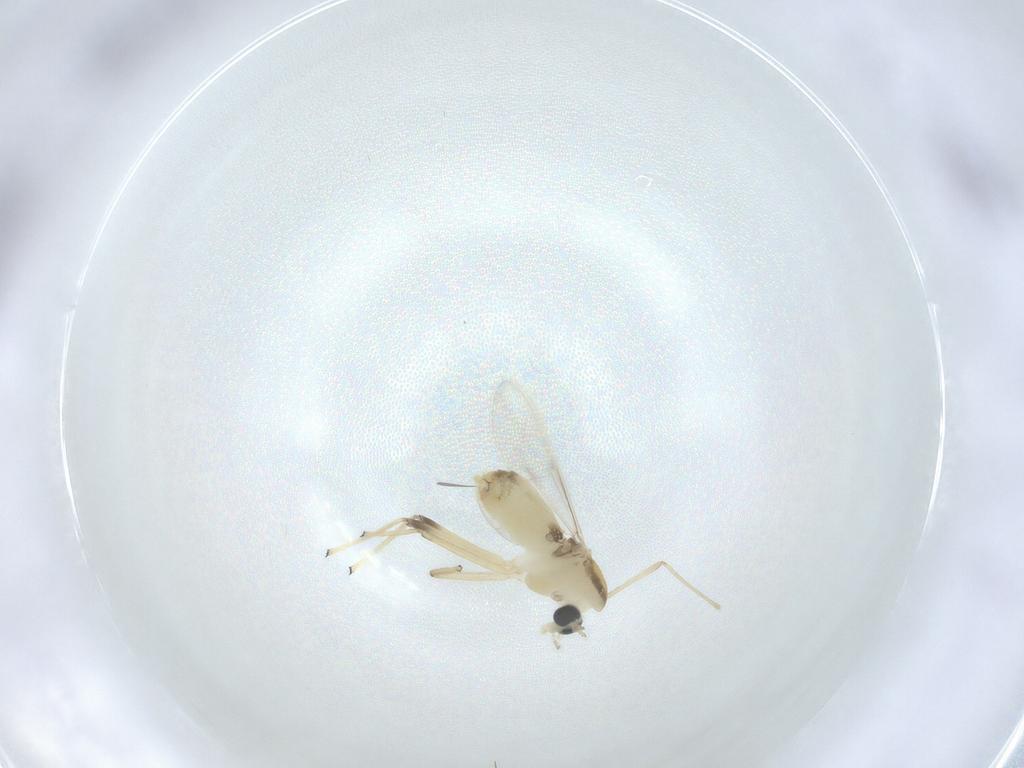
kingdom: Animalia
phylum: Arthropoda
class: Insecta
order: Diptera
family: Chironomidae
